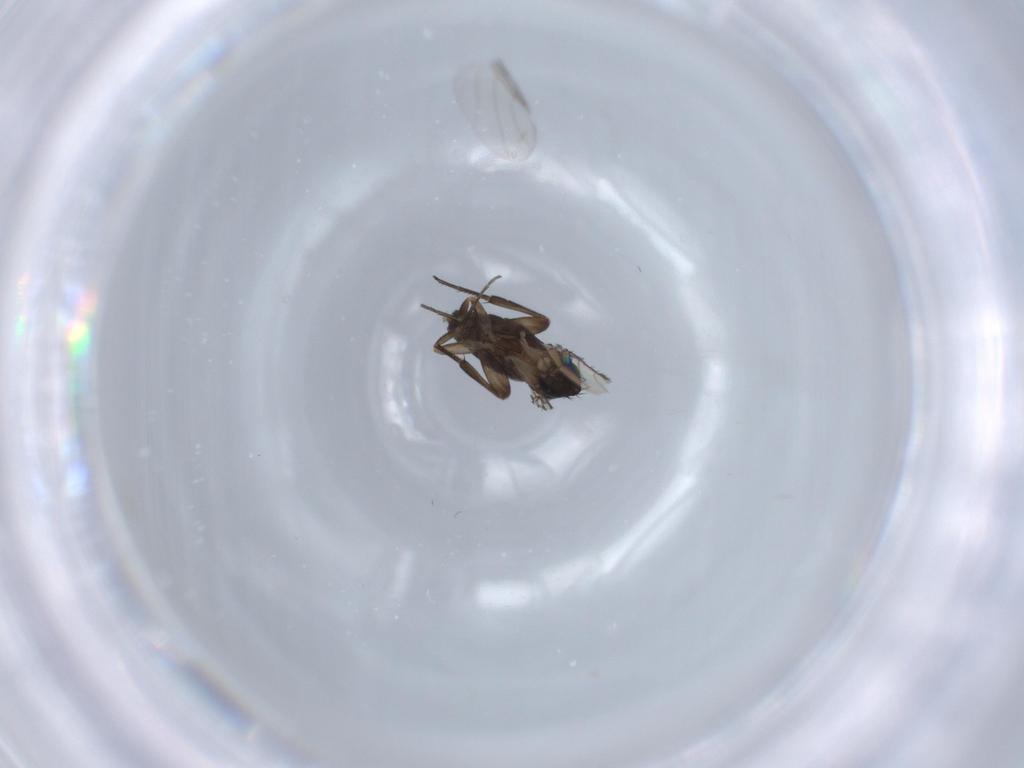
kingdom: Animalia
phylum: Arthropoda
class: Insecta
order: Diptera
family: Phoridae
